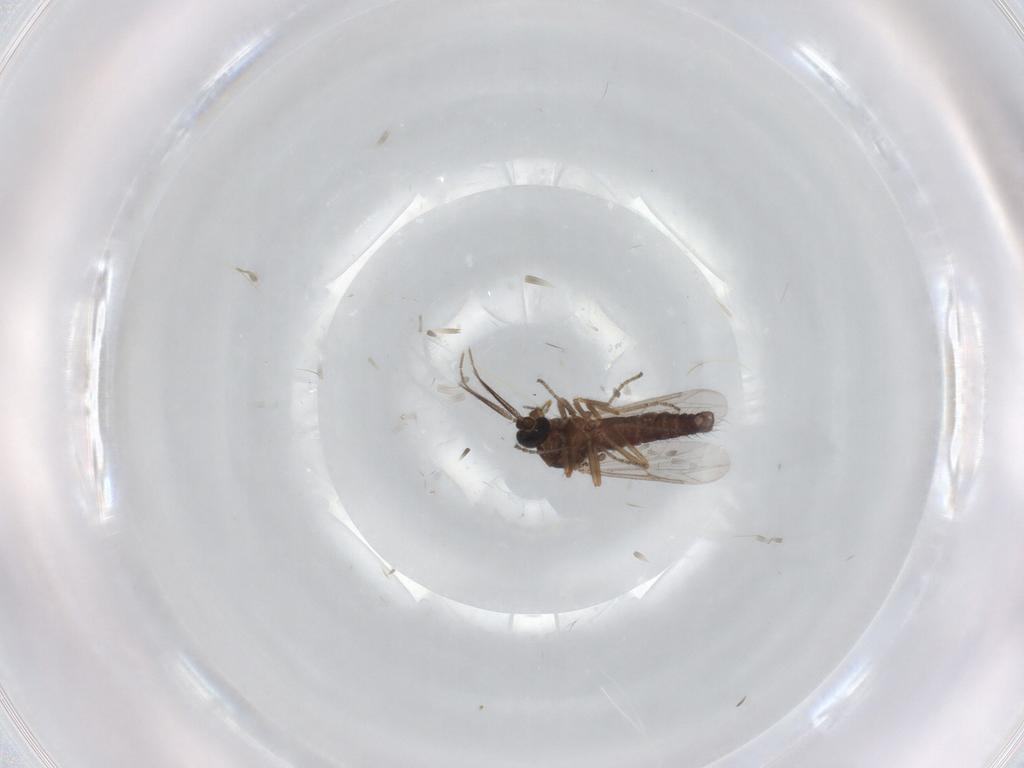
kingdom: Animalia
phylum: Arthropoda
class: Insecta
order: Diptera
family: Ceratopogonidae
